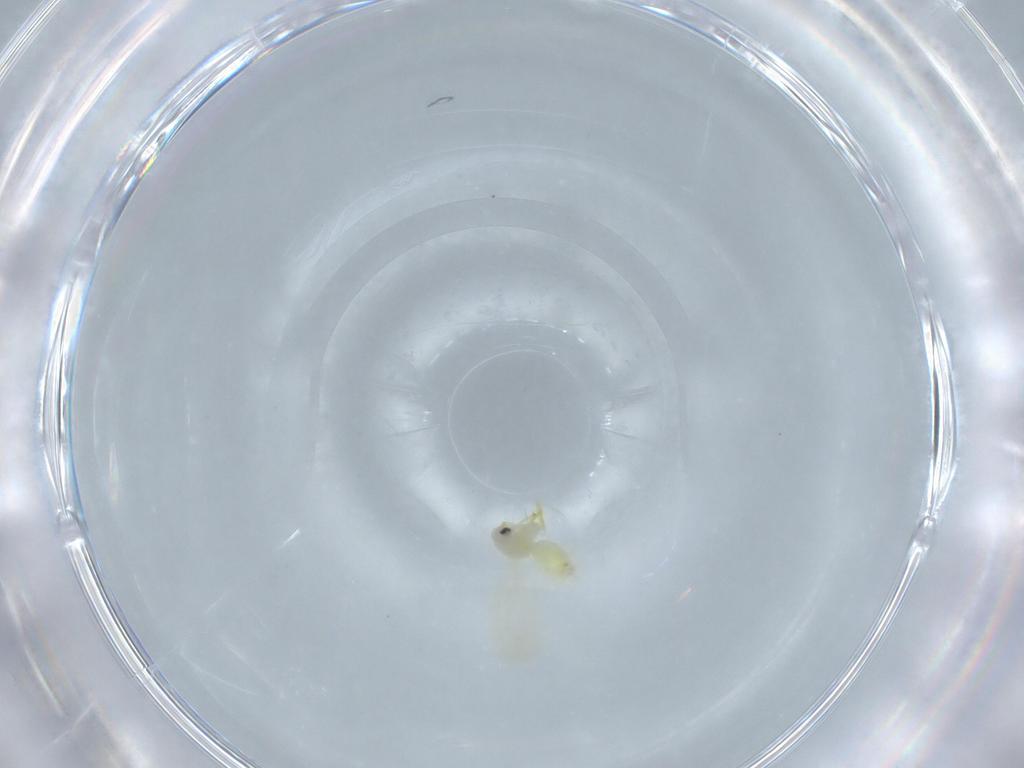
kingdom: Animalia
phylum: Arthropoda
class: Insecta
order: Hemiptera
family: Aleyrodidae
